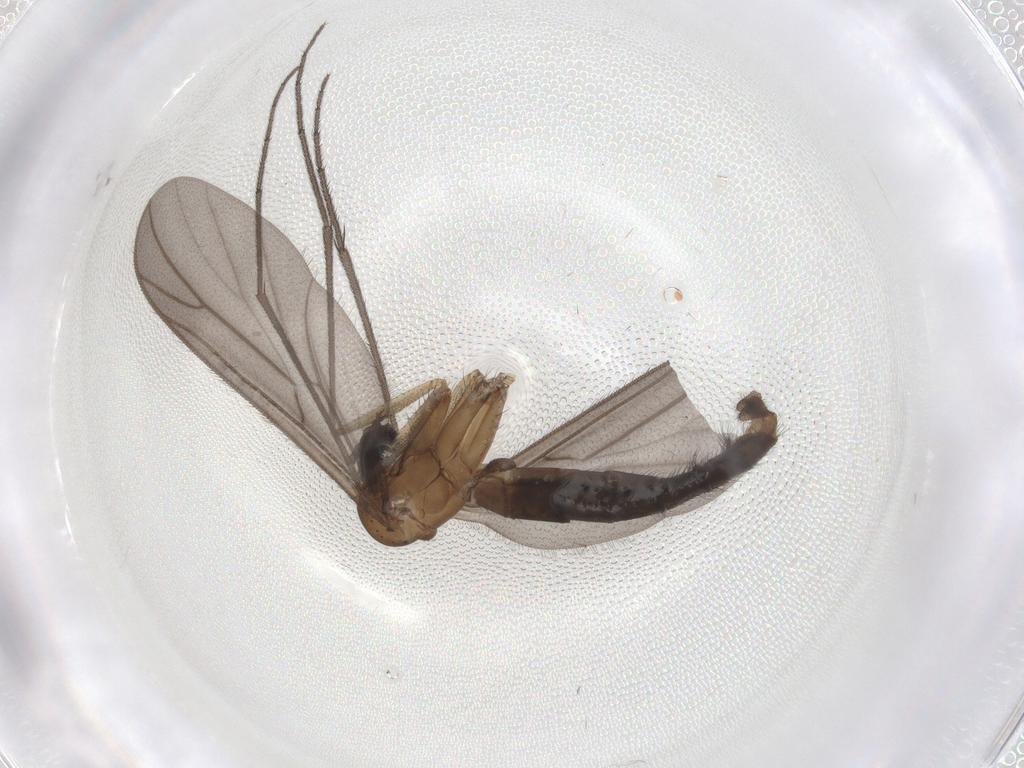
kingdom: Animalia
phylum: Arthropoda
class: Insecta
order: Diptera
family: Ditomyiidae
